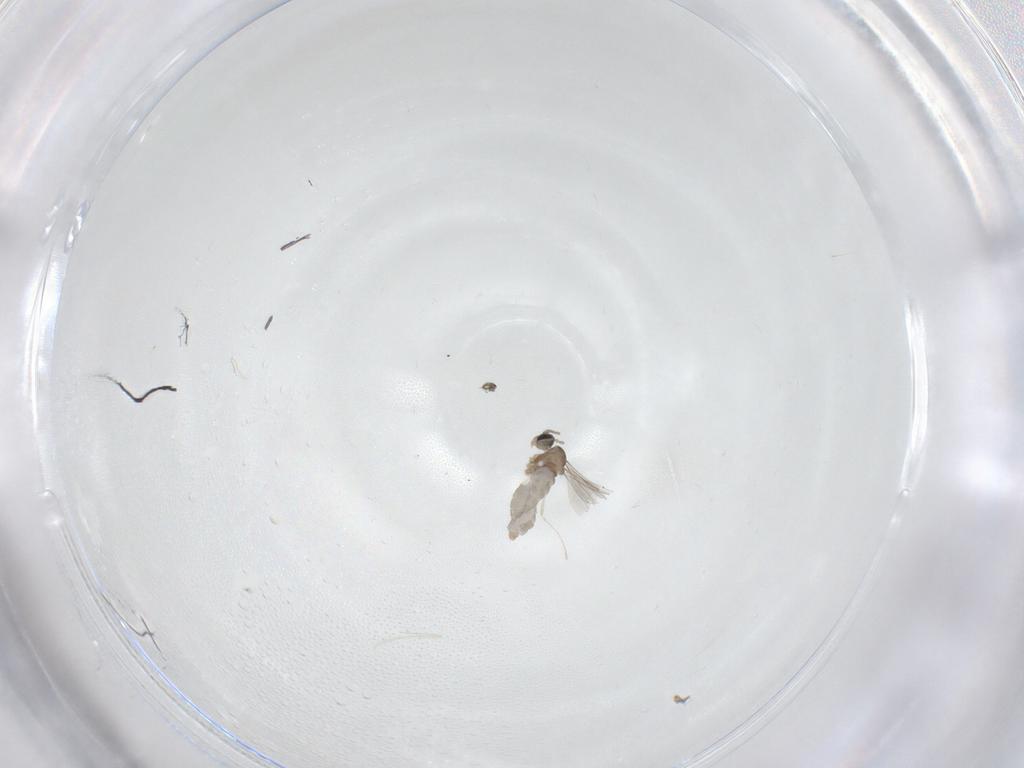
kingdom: Animalia
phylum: Arthropoda
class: Insecta
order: Diptera
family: Cecidomyiidae
